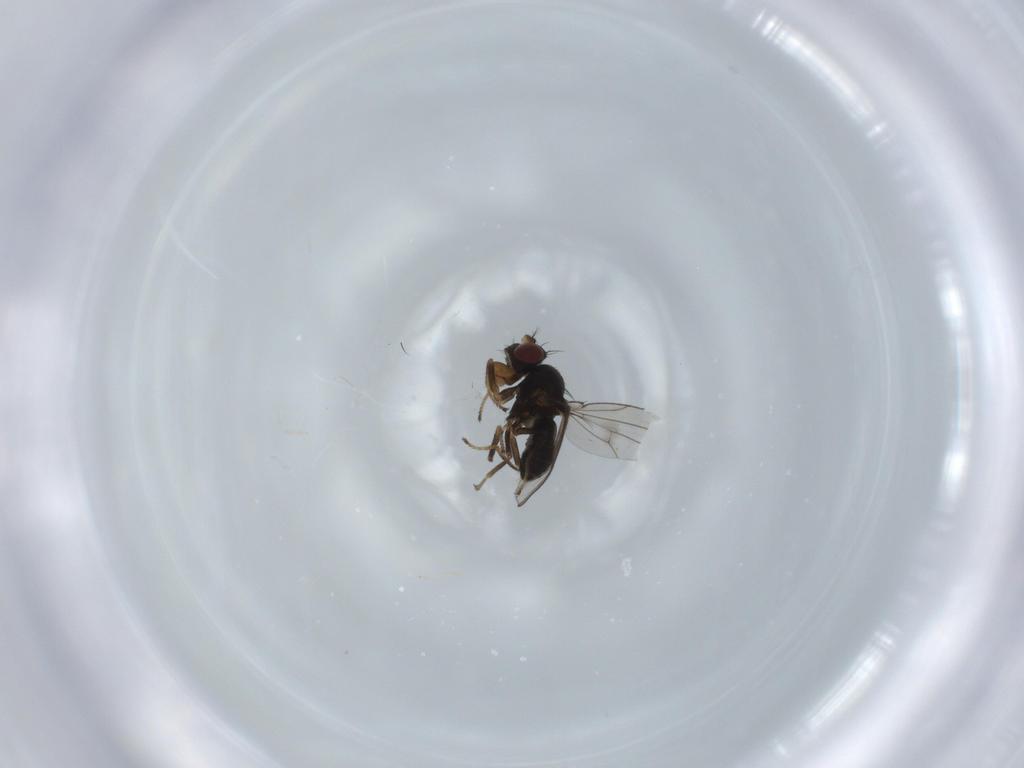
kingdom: Animalia
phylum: Arthropoda
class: Insecta
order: Diptera
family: Ephydridae
